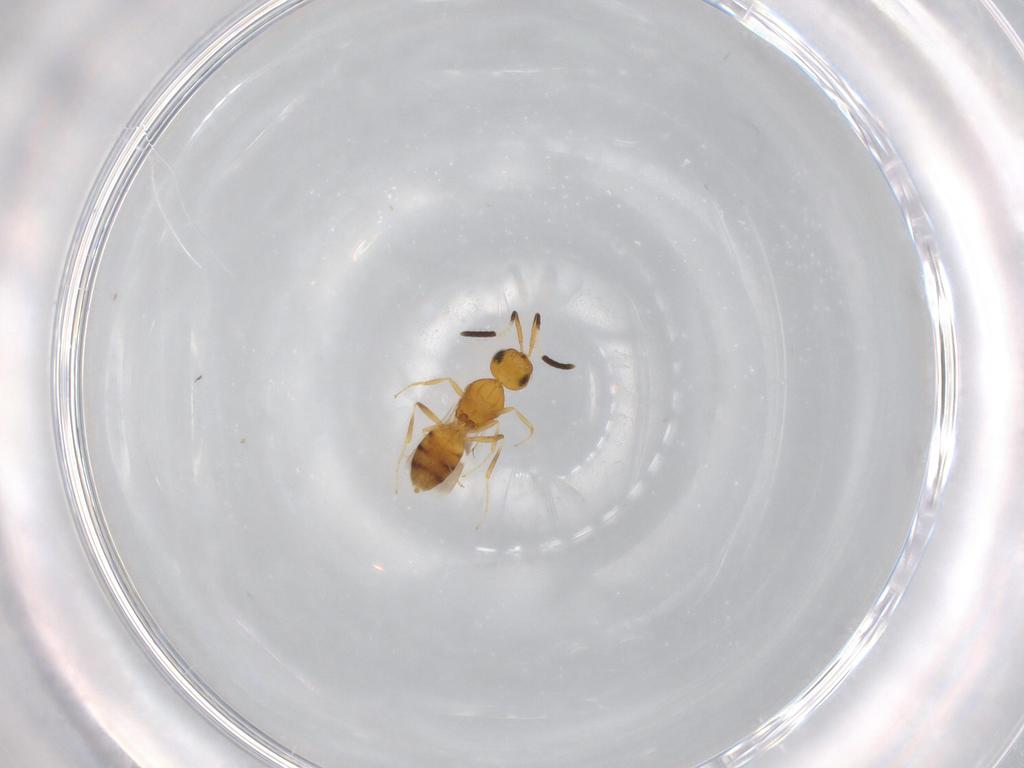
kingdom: Animalia
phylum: Arthropoda
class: Insecta
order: Hymenoptera
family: Scelionidae
